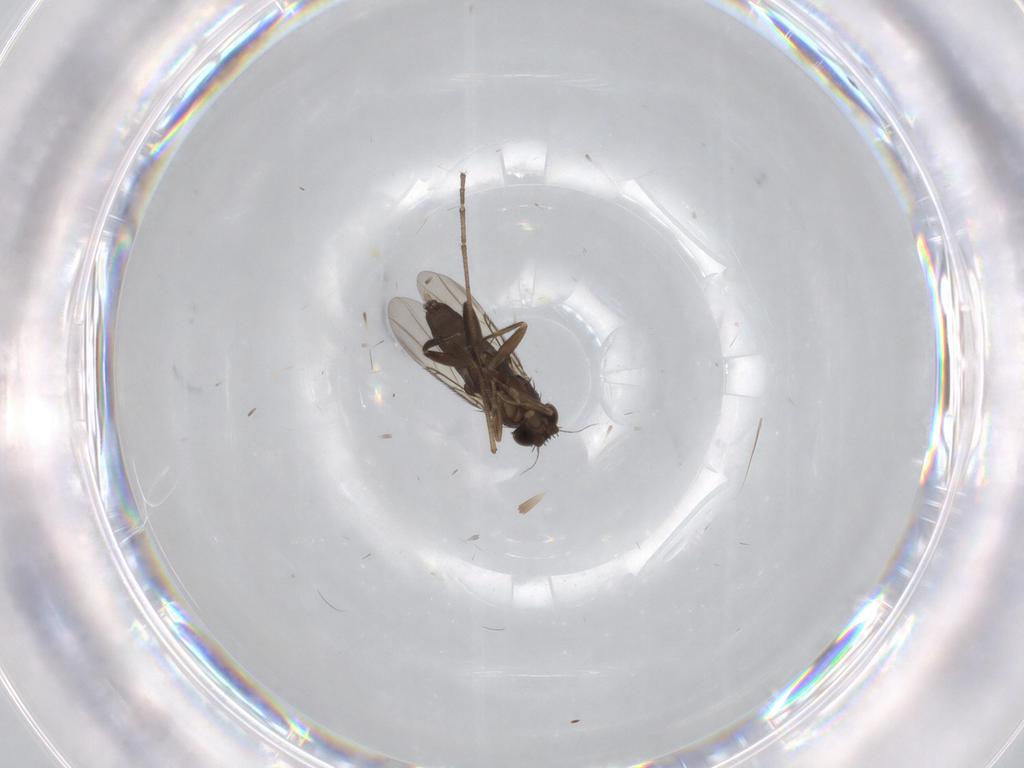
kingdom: Animalia
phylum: Arthropoda
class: Insecta
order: Diptera
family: Phoridae
